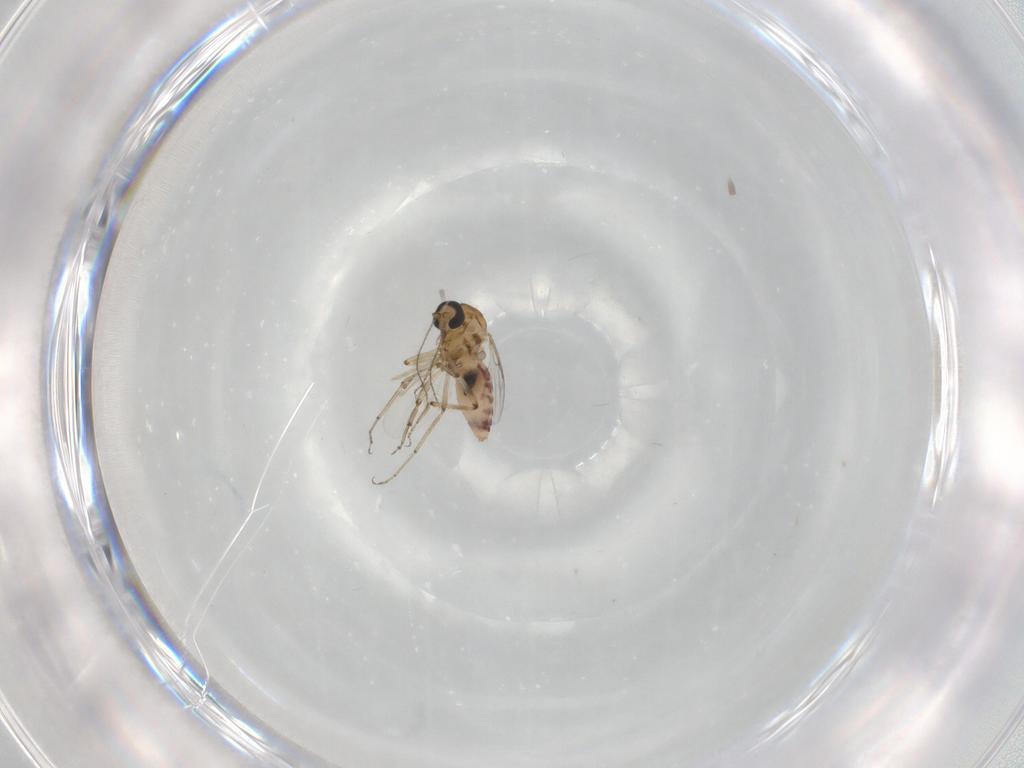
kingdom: Animalia
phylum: Arthropoda
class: Insecta
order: Diptera
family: Ceratopogonidae
